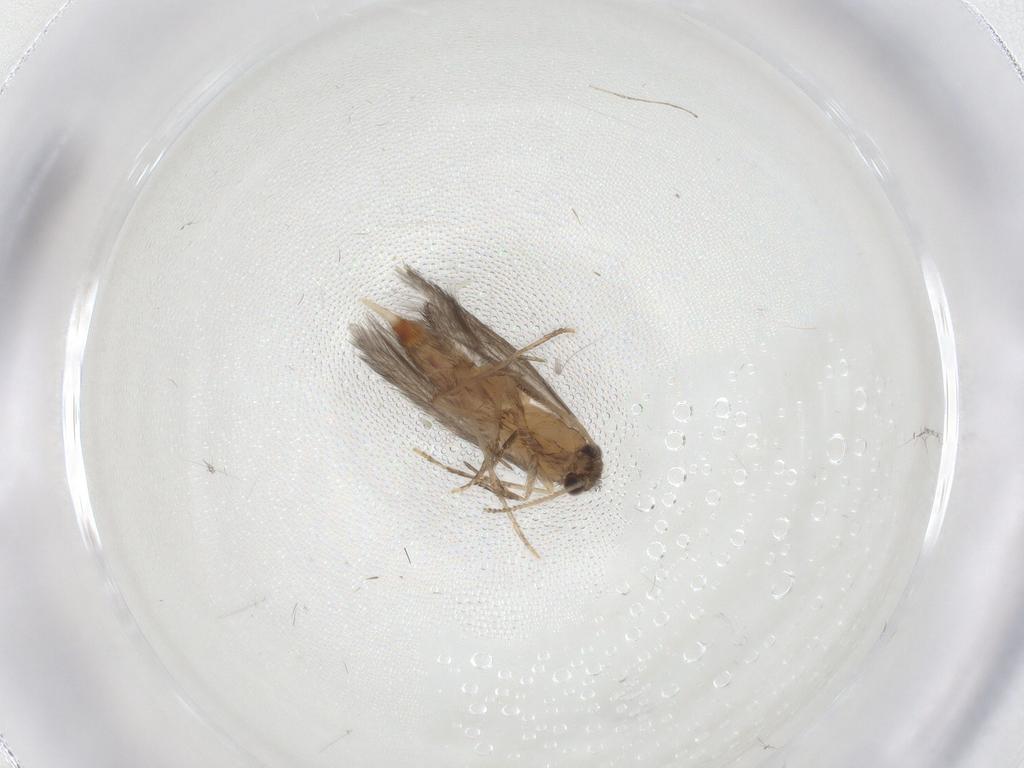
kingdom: Animalia
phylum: Arthropoda
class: Insecta
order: Trichoptera
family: Hydroptilidae
